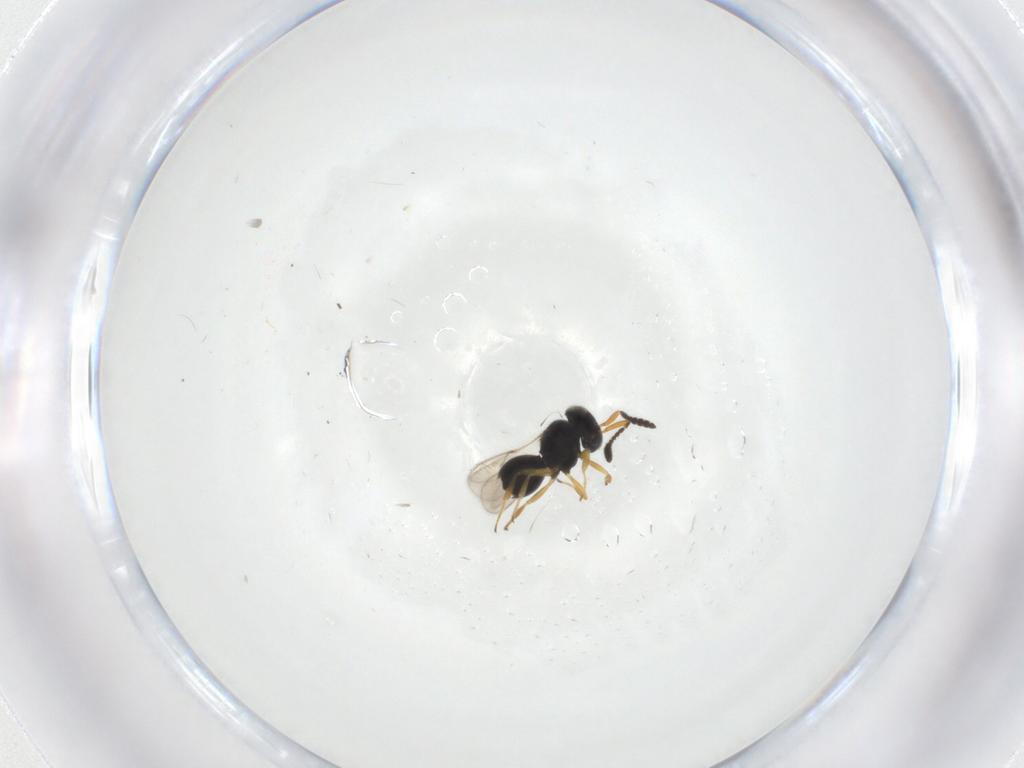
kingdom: Animalia
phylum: Arthropoda
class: Insecta
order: Hymenoptera
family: Scelionidae
